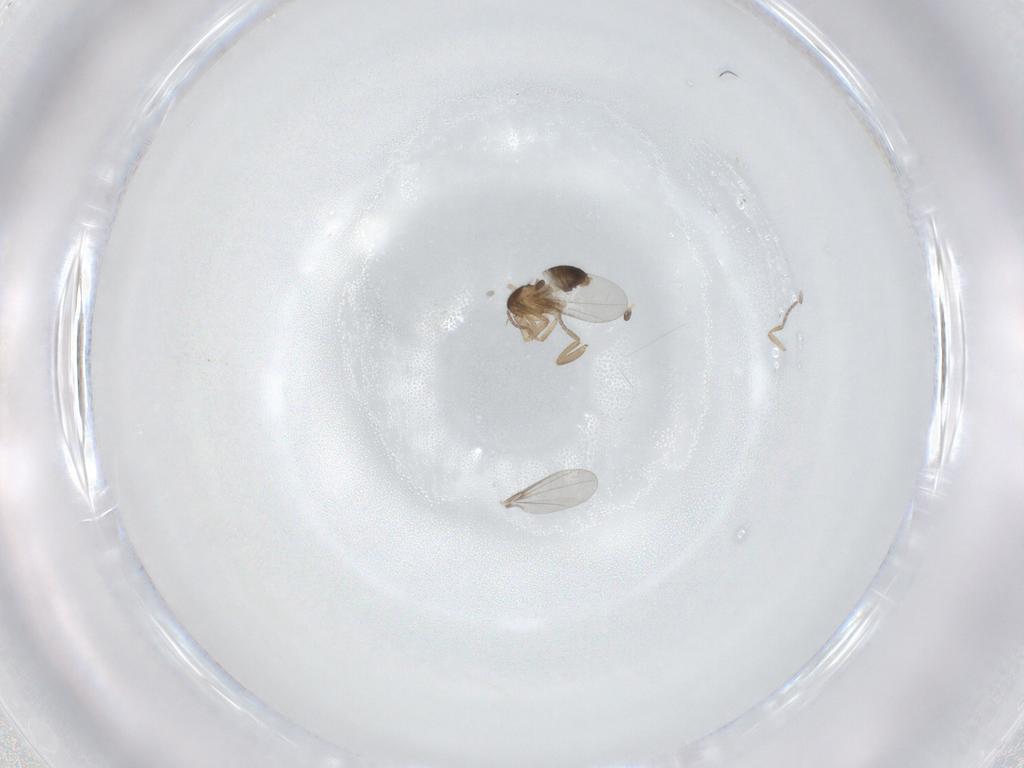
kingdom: Animalia
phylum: Arthropoda
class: Insecta
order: Diptera
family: Phoridae
